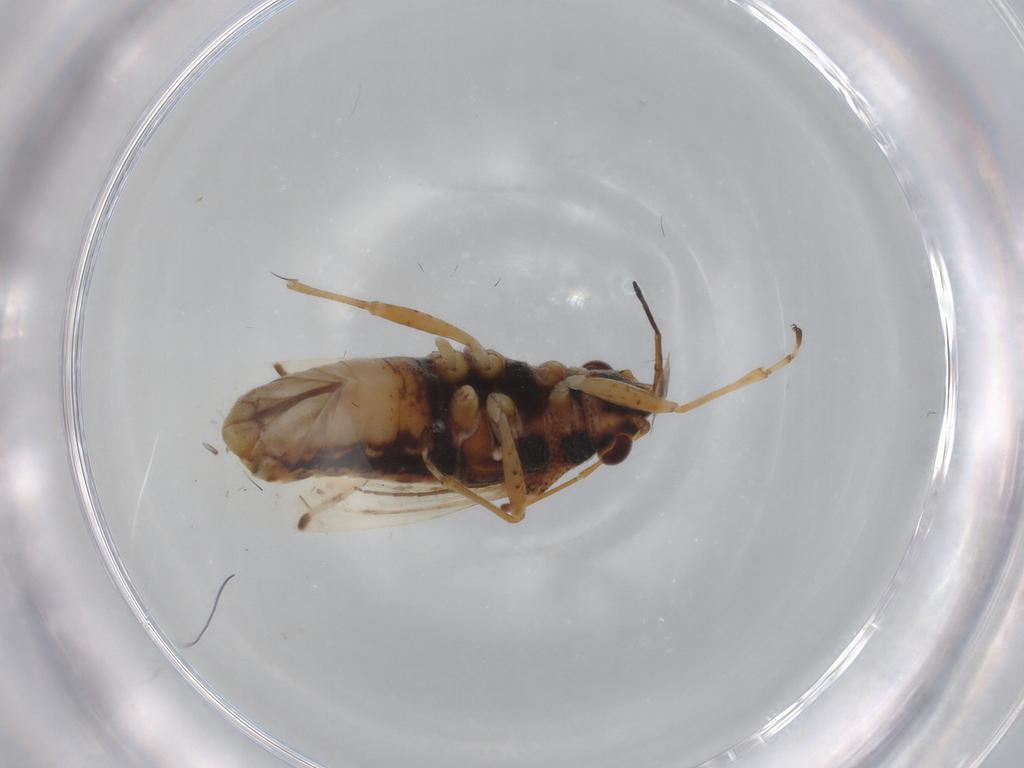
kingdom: Animalia
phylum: Arthropoda
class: Insecta
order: Hemiptera
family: Lygaeidae
